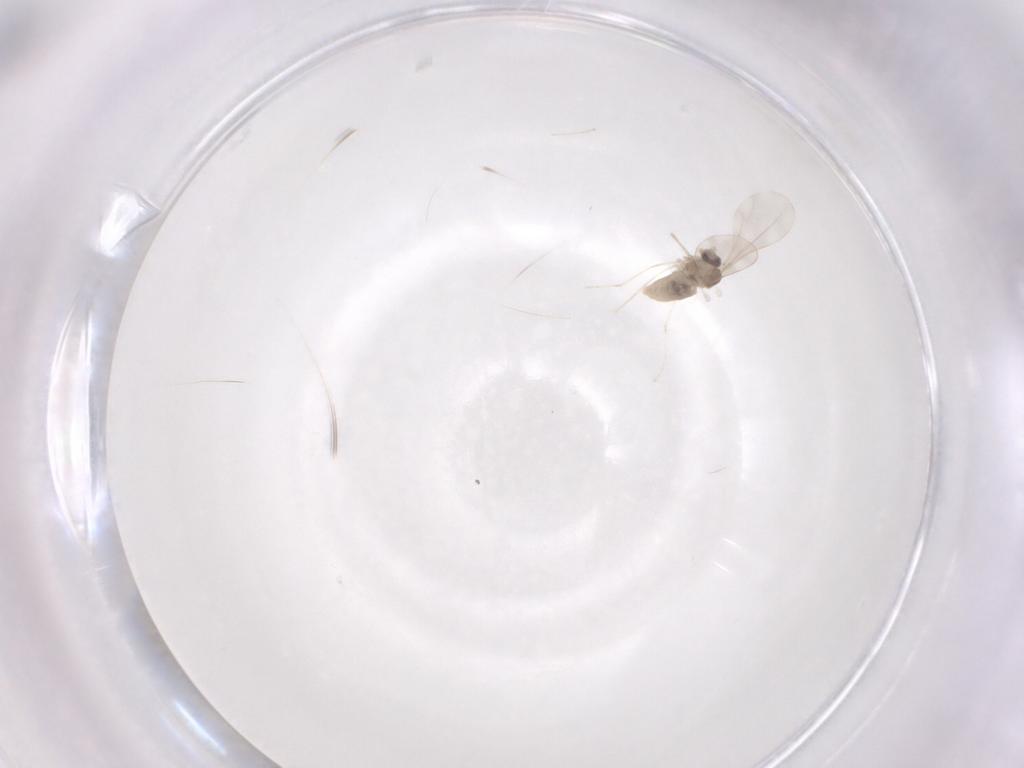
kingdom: Animalia
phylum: Arthropoda
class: Insecta
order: Diptera
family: Cecidomyiidae
